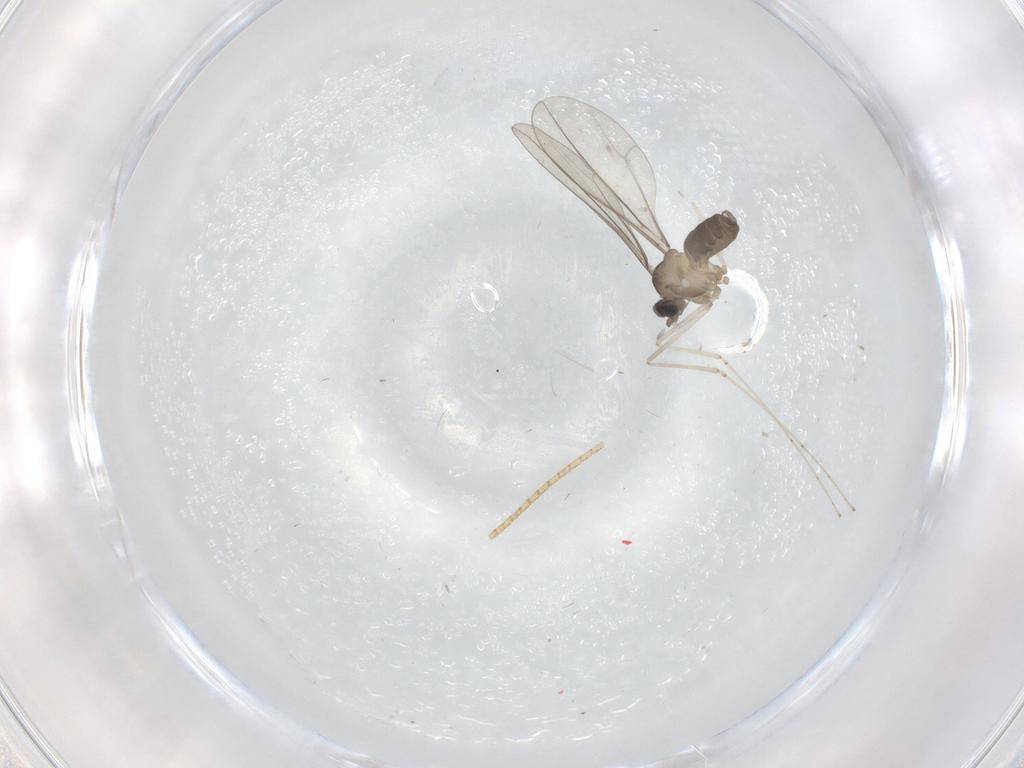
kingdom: Animalia
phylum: Arthropoda
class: Insecta
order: Diptera
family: Cecidomyiidae
